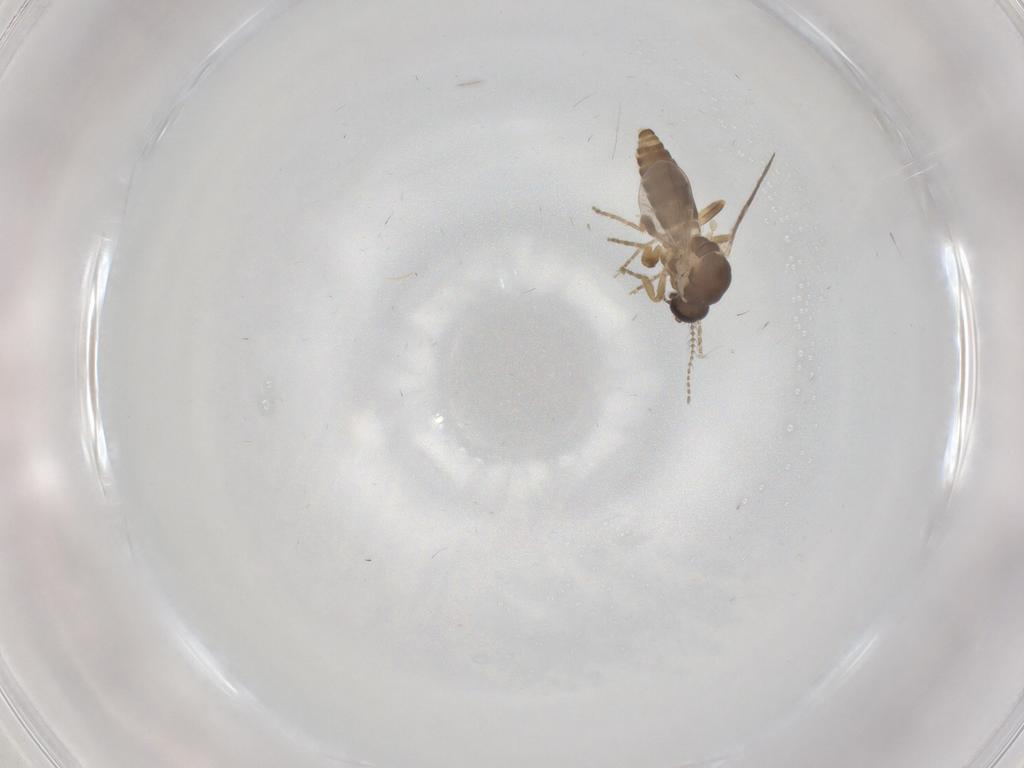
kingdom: Animalia
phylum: Arthropoda
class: Insecta
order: Diptera
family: Ceratopogonidae
